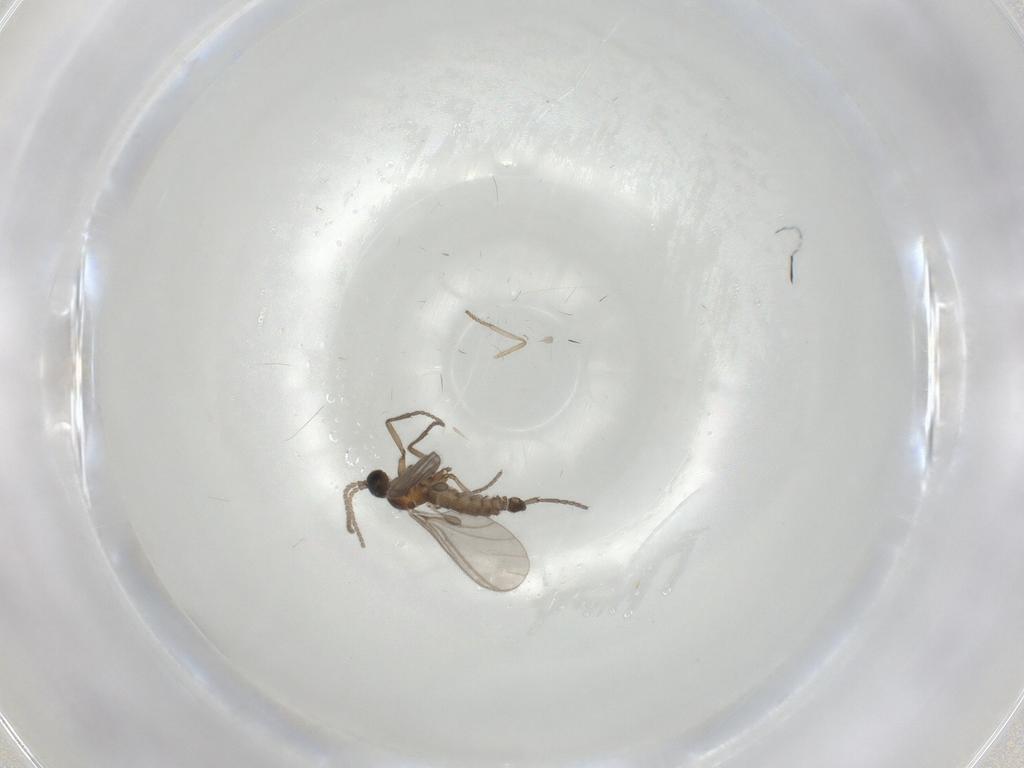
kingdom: Animalia
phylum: Arthropoda
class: Insecta
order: Diptera
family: Sciaridae
